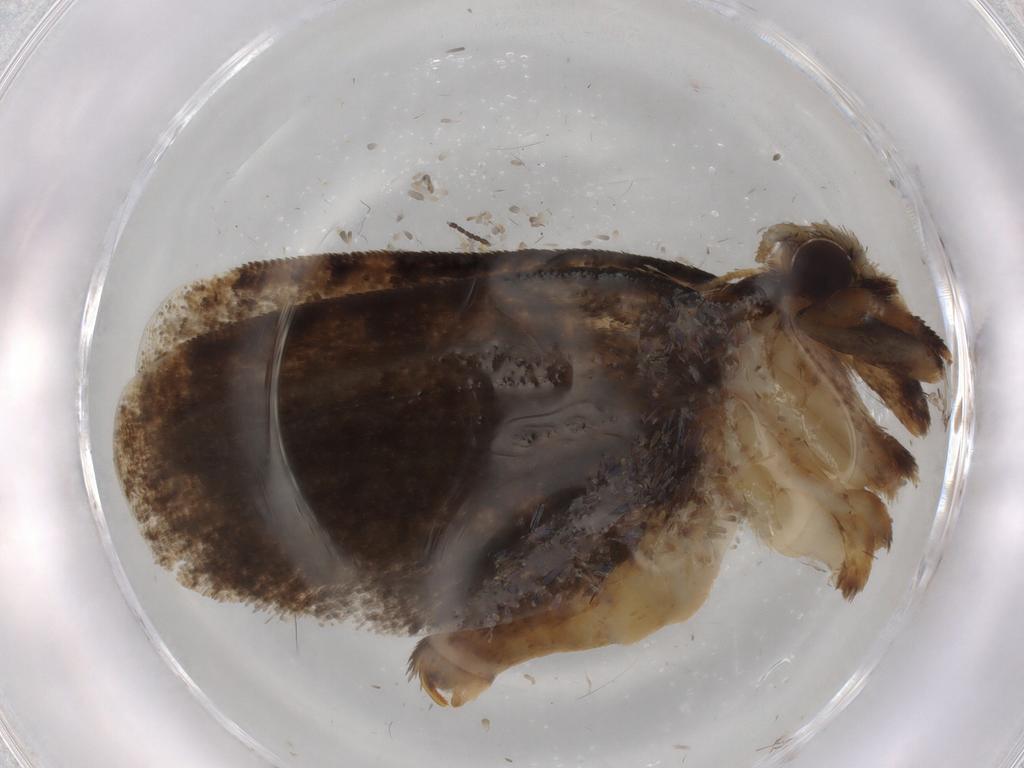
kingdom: Animalia
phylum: Arthropoda
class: Insecta
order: Lepidoptera
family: Tineidae
